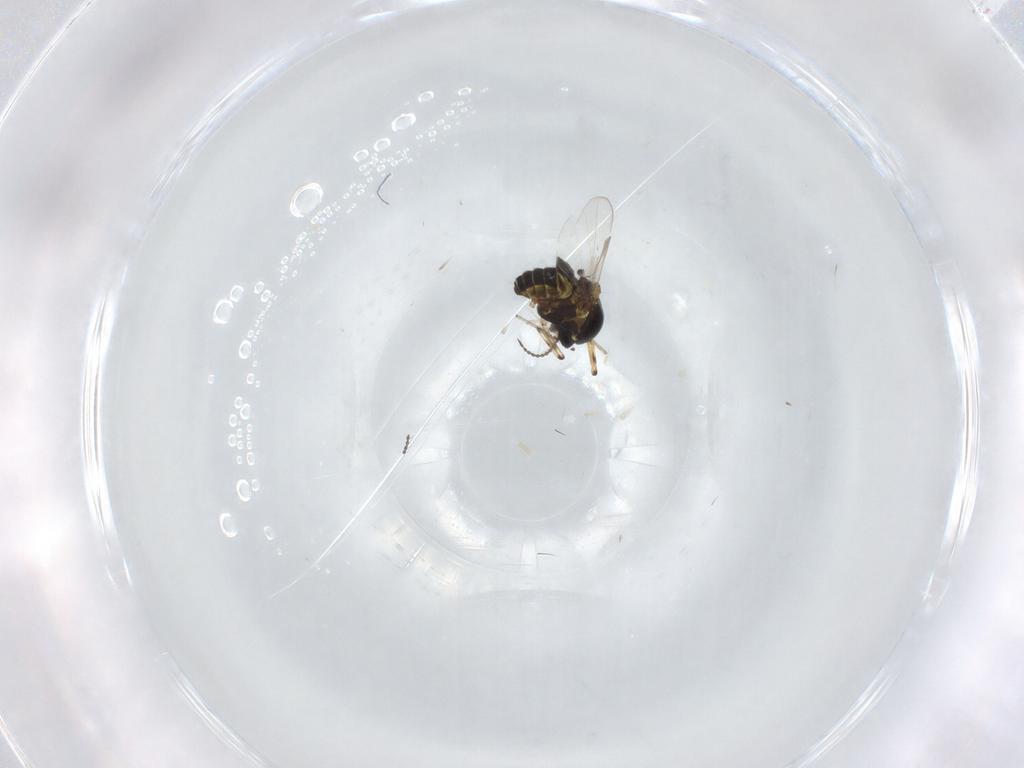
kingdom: Animalia
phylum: Arthropoda
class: Insecta
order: Diptera
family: Ceratopogonidae
